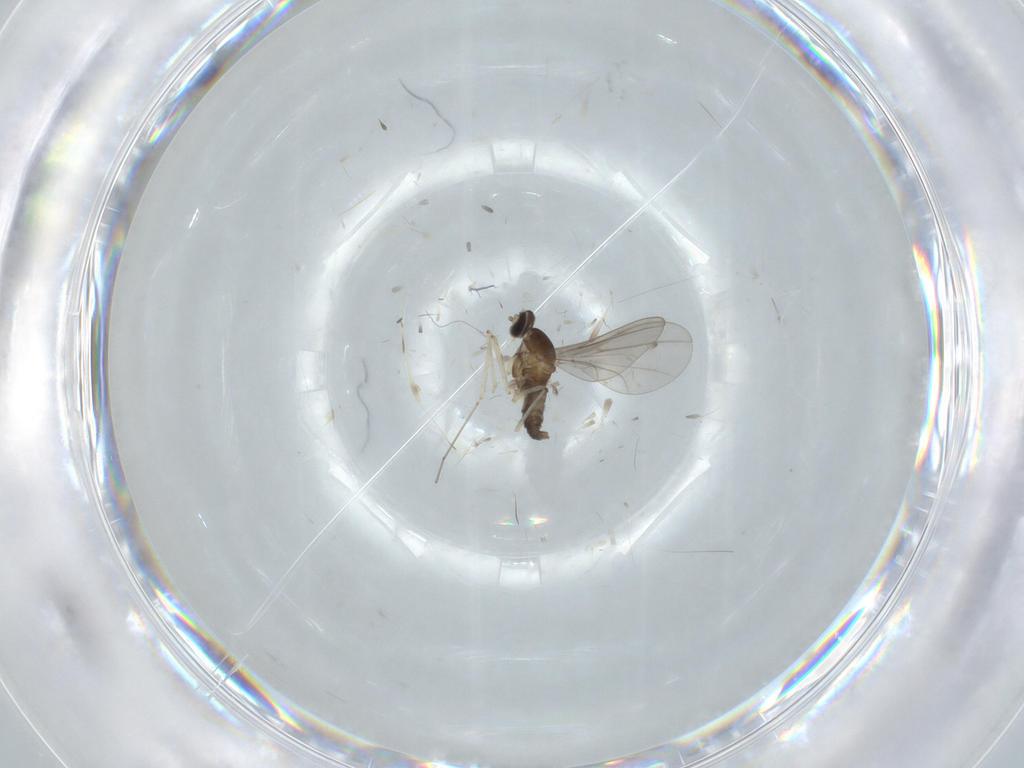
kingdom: Animalia
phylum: Arthropoda
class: Insecta
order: Diptera
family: Cecidomyiidae
